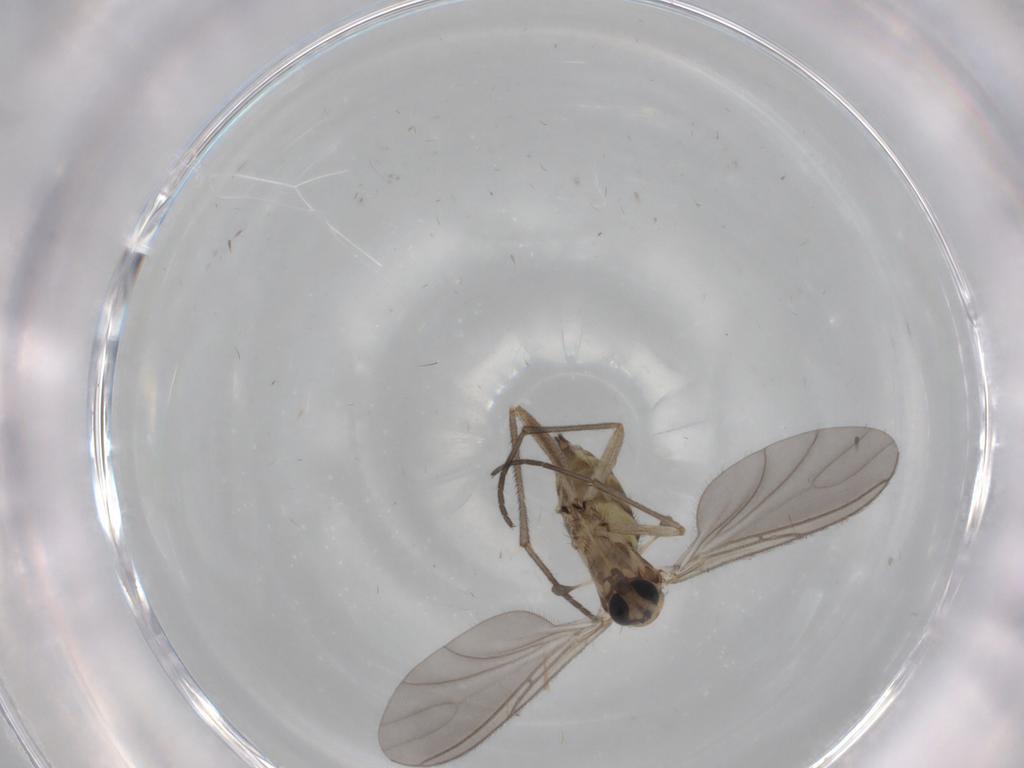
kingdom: Animalia
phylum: Arthropoda
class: Insecta
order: Diptera
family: Sciaridae
